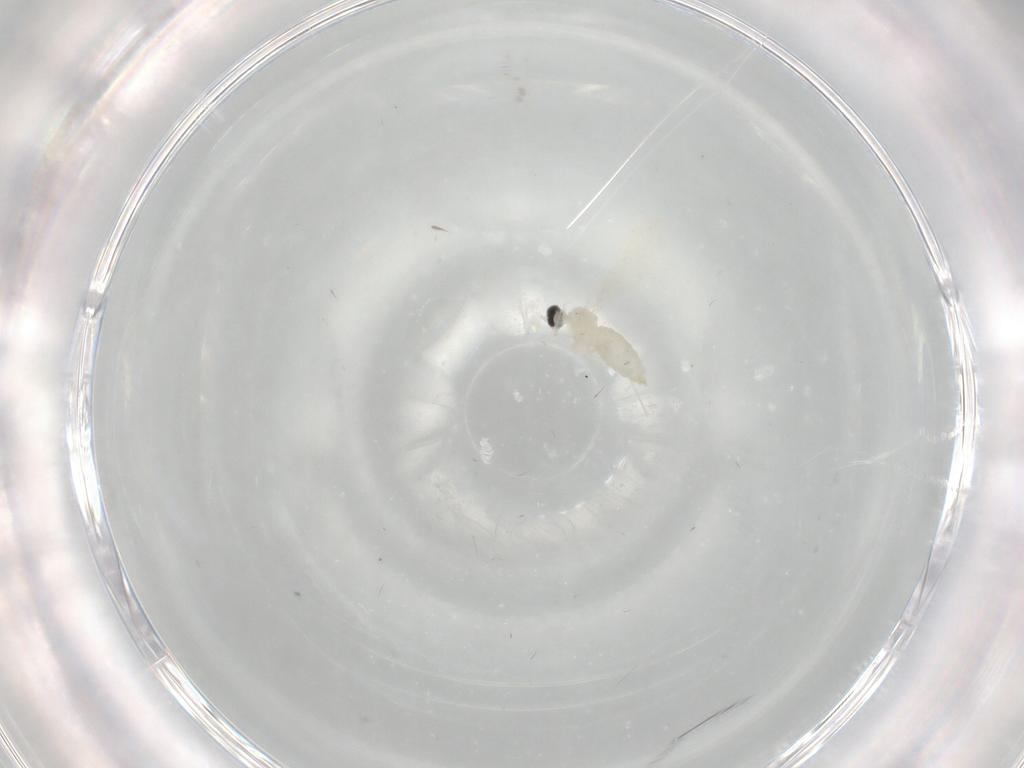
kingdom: Animalia
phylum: Arthropoda
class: Insecta
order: Diptera
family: Cecidomyiidae
